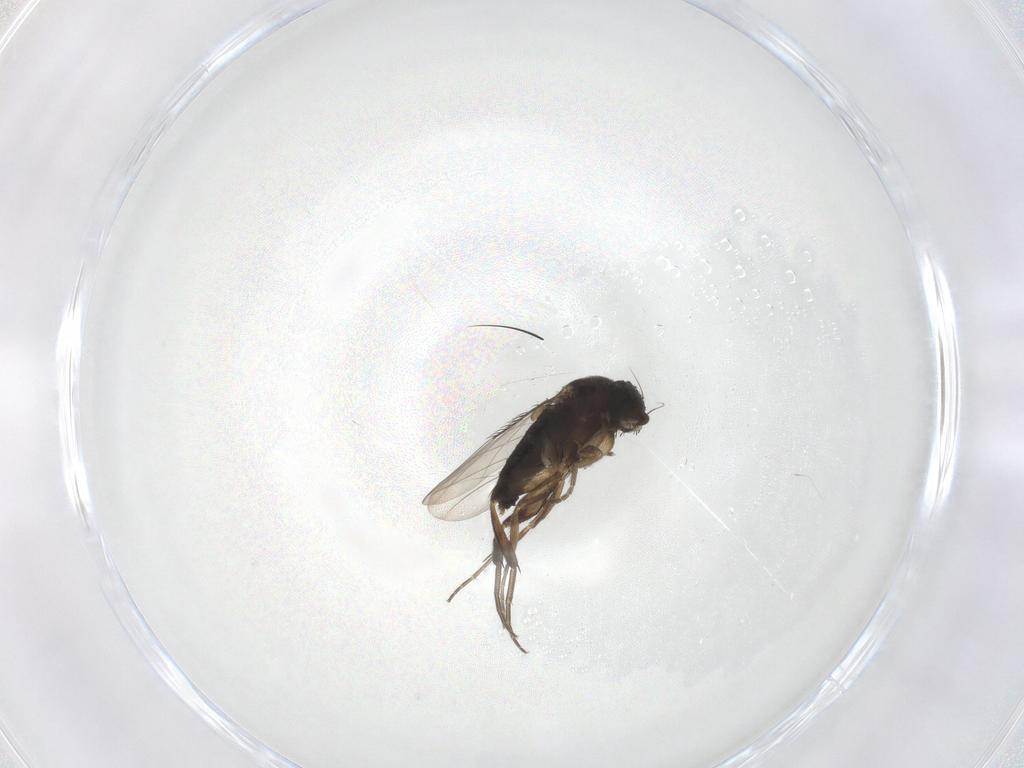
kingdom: Animalia
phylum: Arthropoda
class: Insecta
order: Diptera
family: Phoridae
